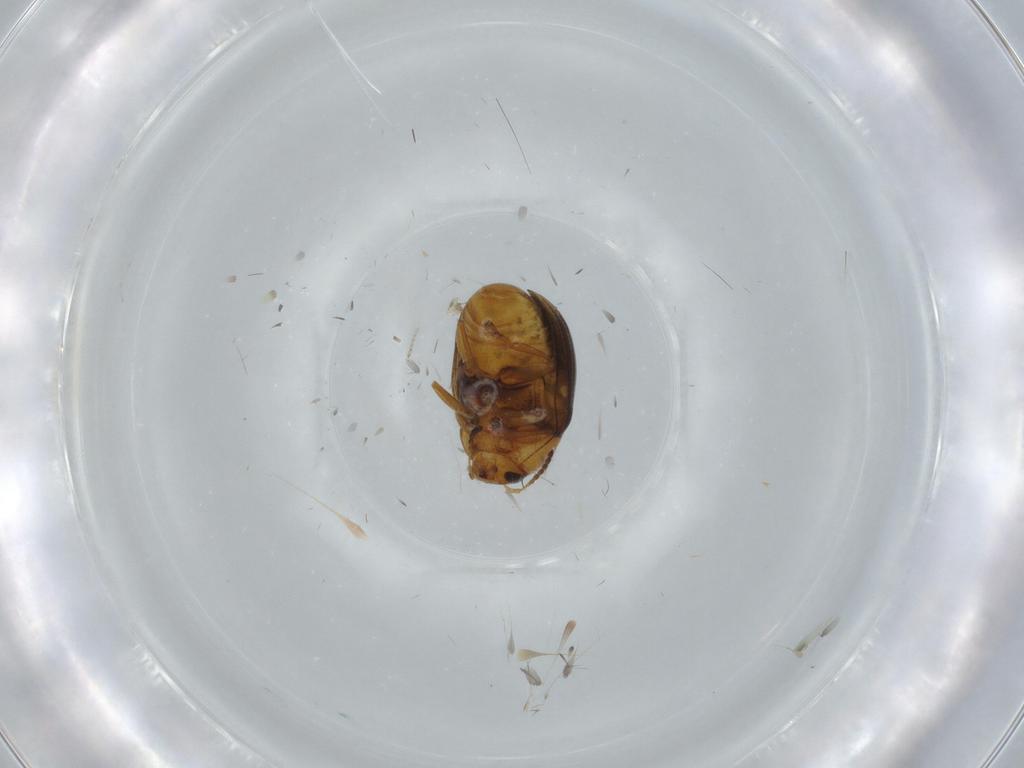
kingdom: Animalia
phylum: Arthropoda
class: Insecta
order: Coleoptera
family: Chrysomelidae
